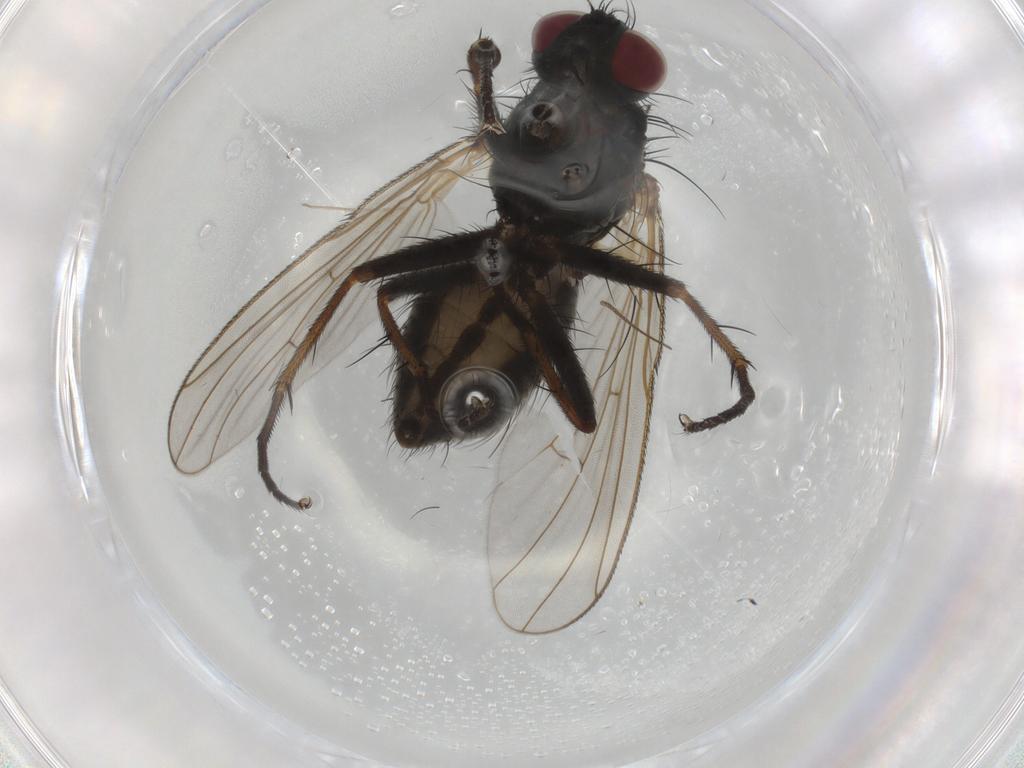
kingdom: Animalia
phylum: Arthropoda
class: Insecta
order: Diptera
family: Muscidae
